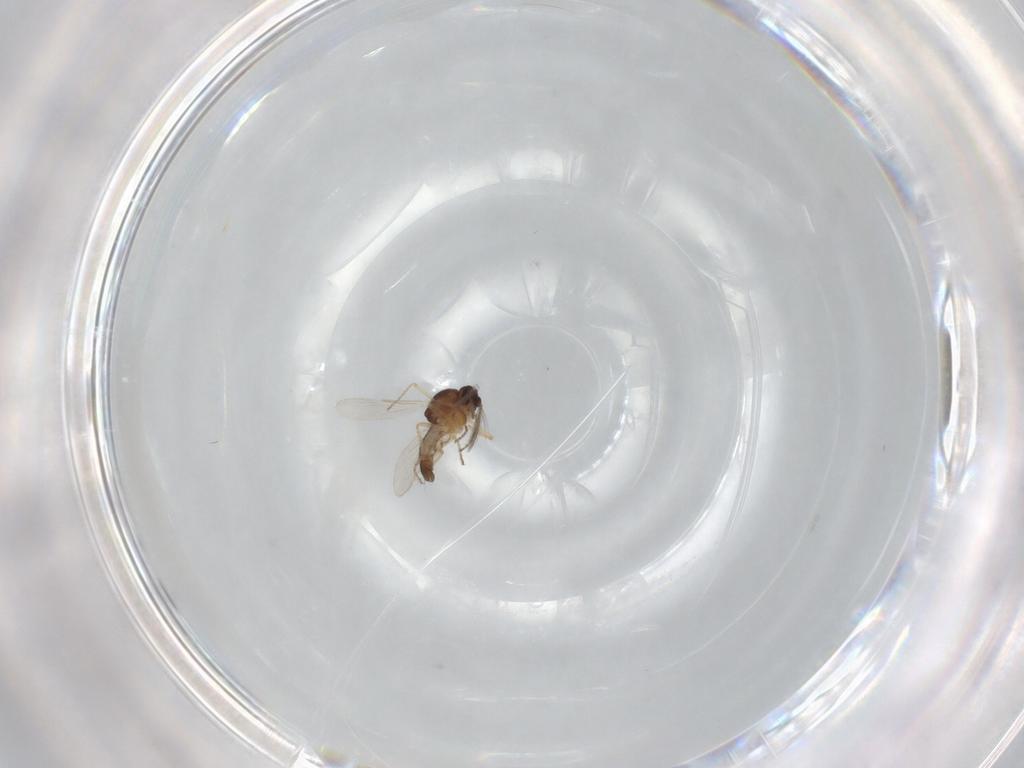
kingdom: Animalia
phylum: Arthropoda
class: Insecta
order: Diptera
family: Ceratopogonidae
